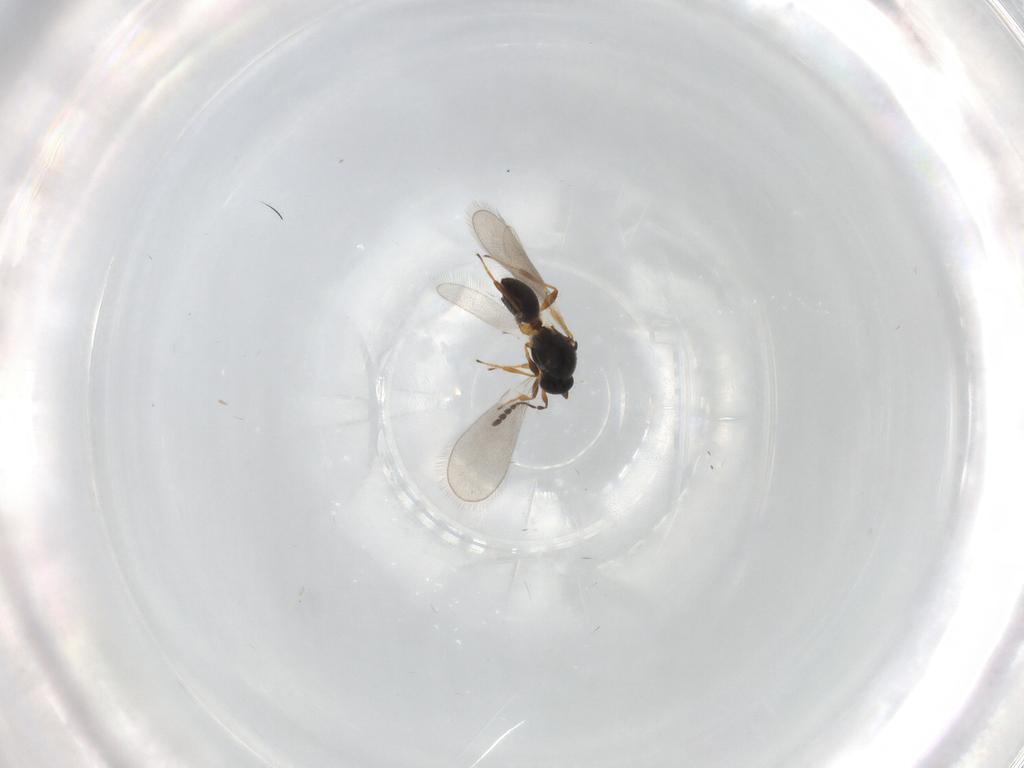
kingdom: Animalia
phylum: Arthropoda
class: Insecta
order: Hymenoptera
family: Platygastridae
